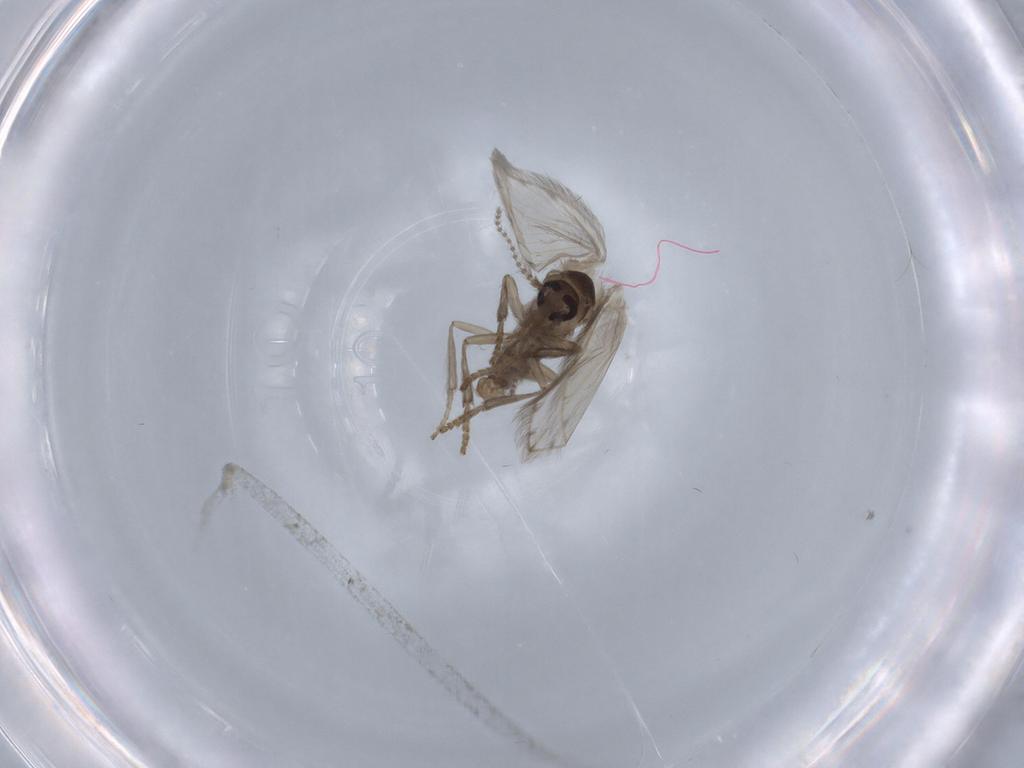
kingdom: Animalia
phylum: Arthropoda
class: Insecta
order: Diptera
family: Psychodidae
